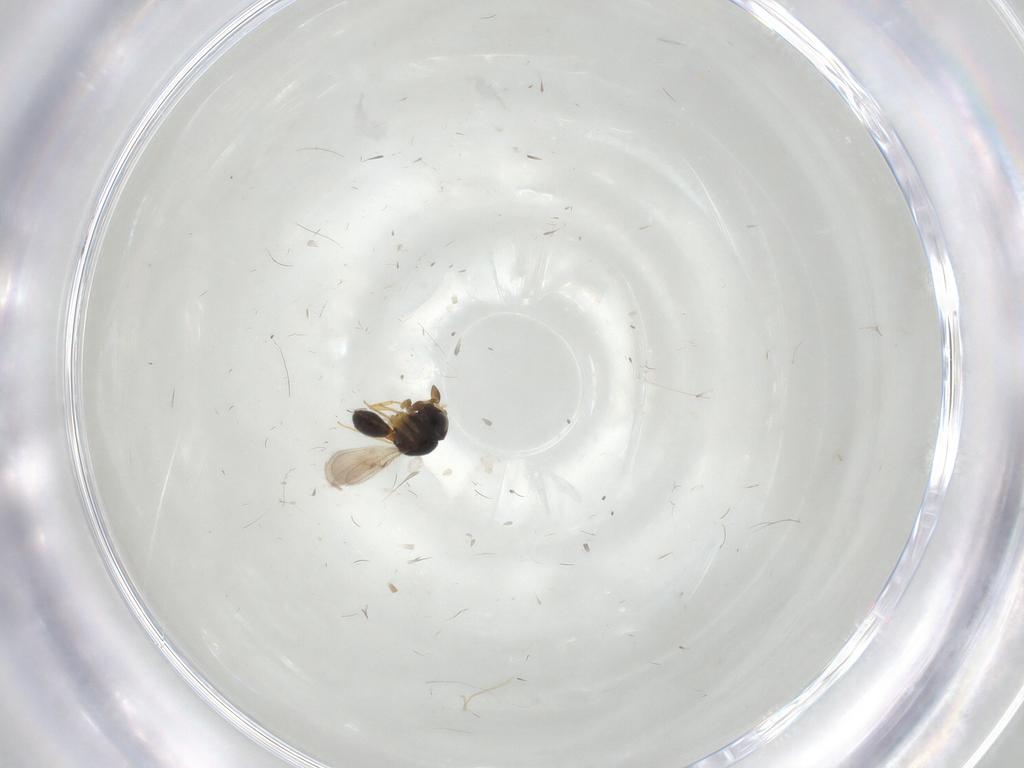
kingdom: Animalia
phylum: Arthropoda
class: Insecta
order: Hymenoptera
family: Scelionidae
